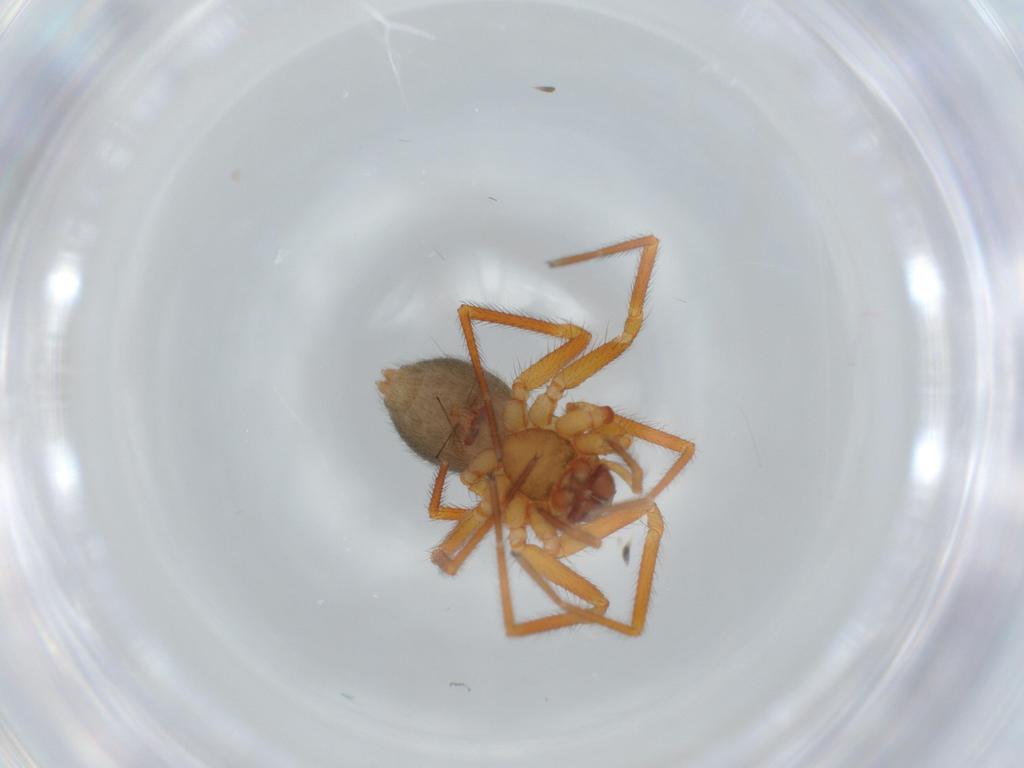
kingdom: Animalia
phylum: Arthropoda
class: Arachnida
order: Araneae
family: Linyphiidae
